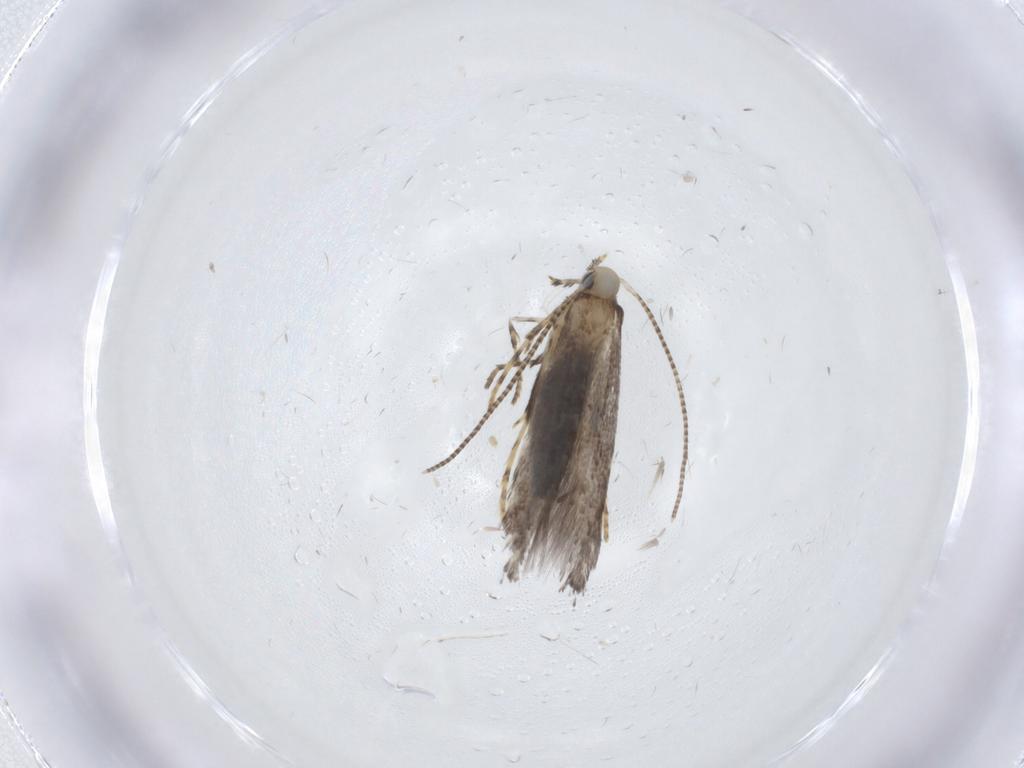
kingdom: Animalia
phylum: Arthropoda
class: Insecta
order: Lepidoptera
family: Gracillariidae
